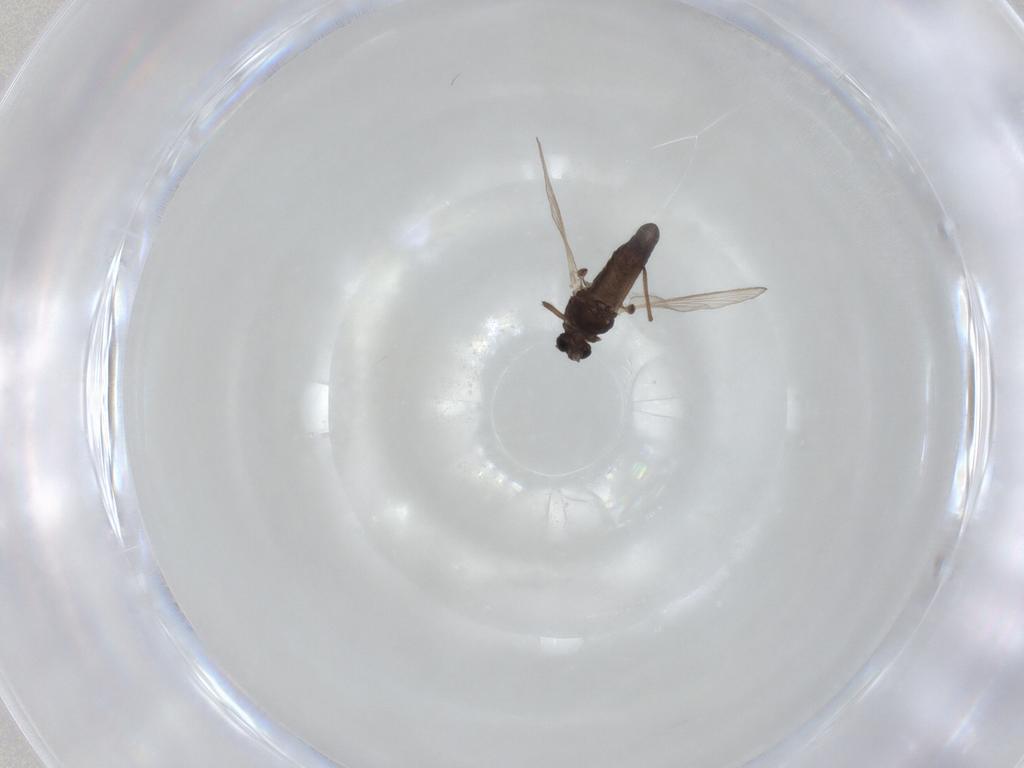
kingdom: Animalia
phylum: Arthropoda
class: Insecta
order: Diptera
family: Chironomidae
